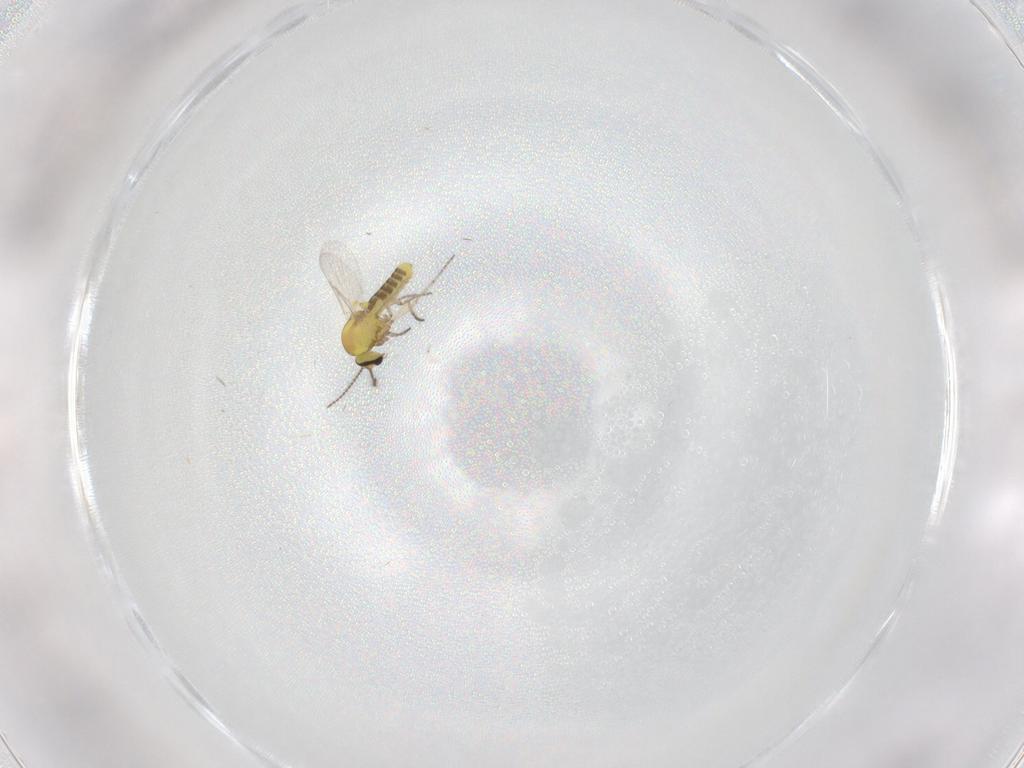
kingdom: Animalia
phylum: Arthropoda
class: Insecta
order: Diptera
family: Ceratopogonidae
